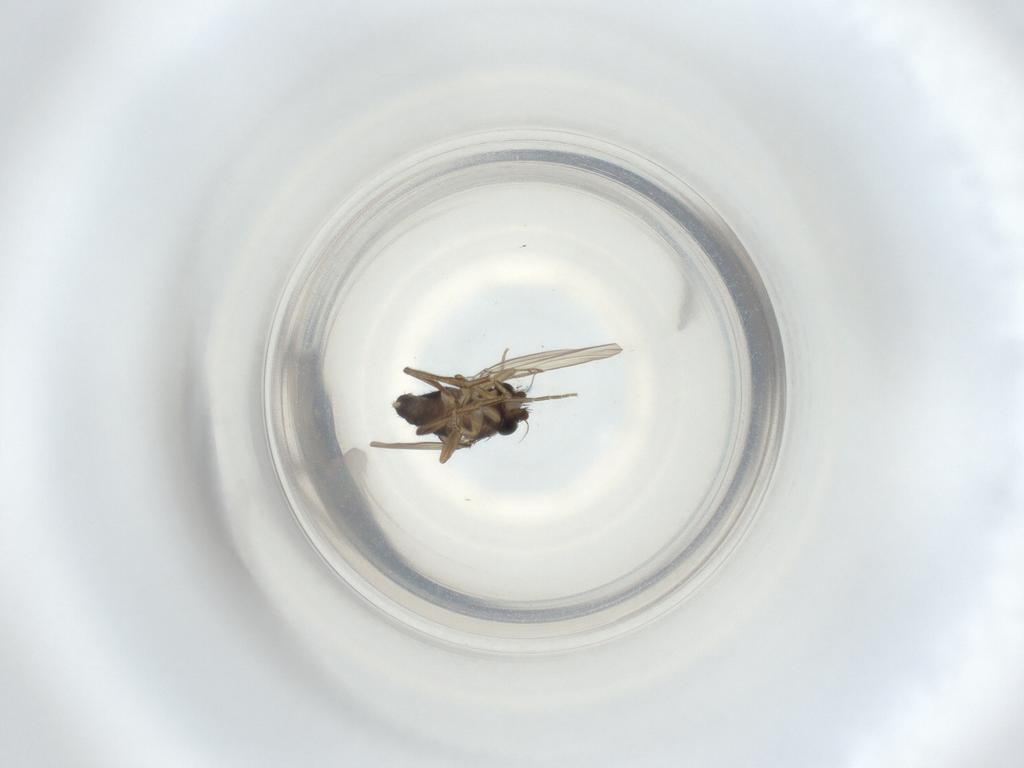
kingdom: Animalia
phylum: Arthropoda
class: Insecta
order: Diptera
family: Phoridae
